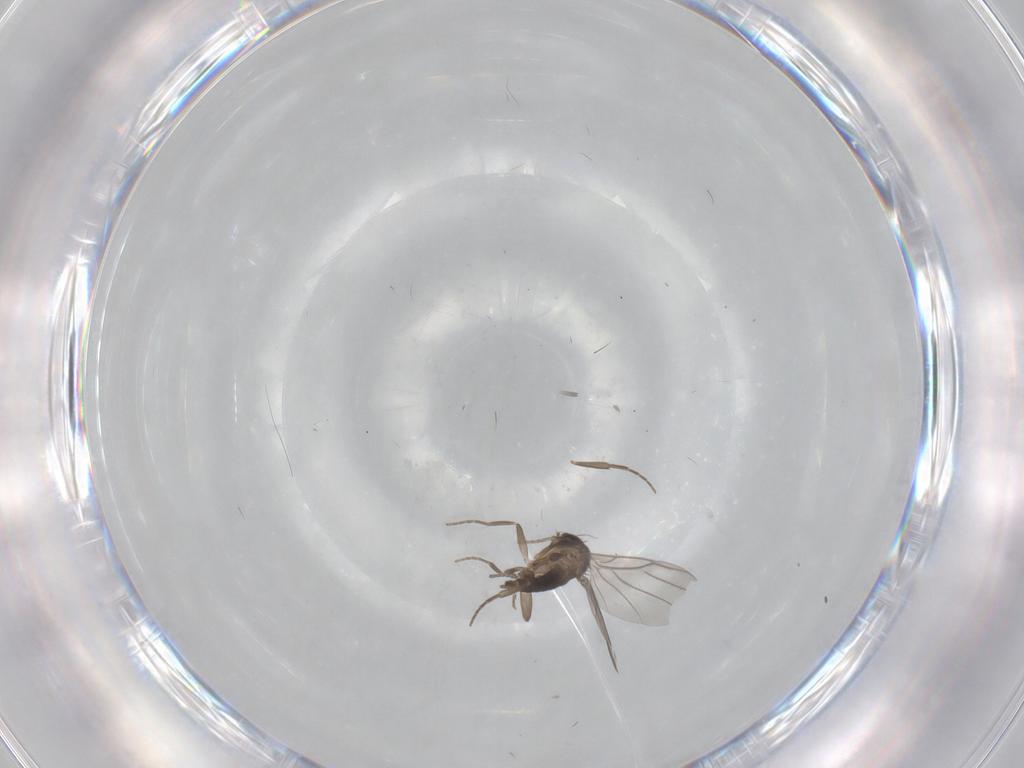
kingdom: Animalia
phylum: Arthropoda
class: Insecta
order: Diptera
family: Phoridae
